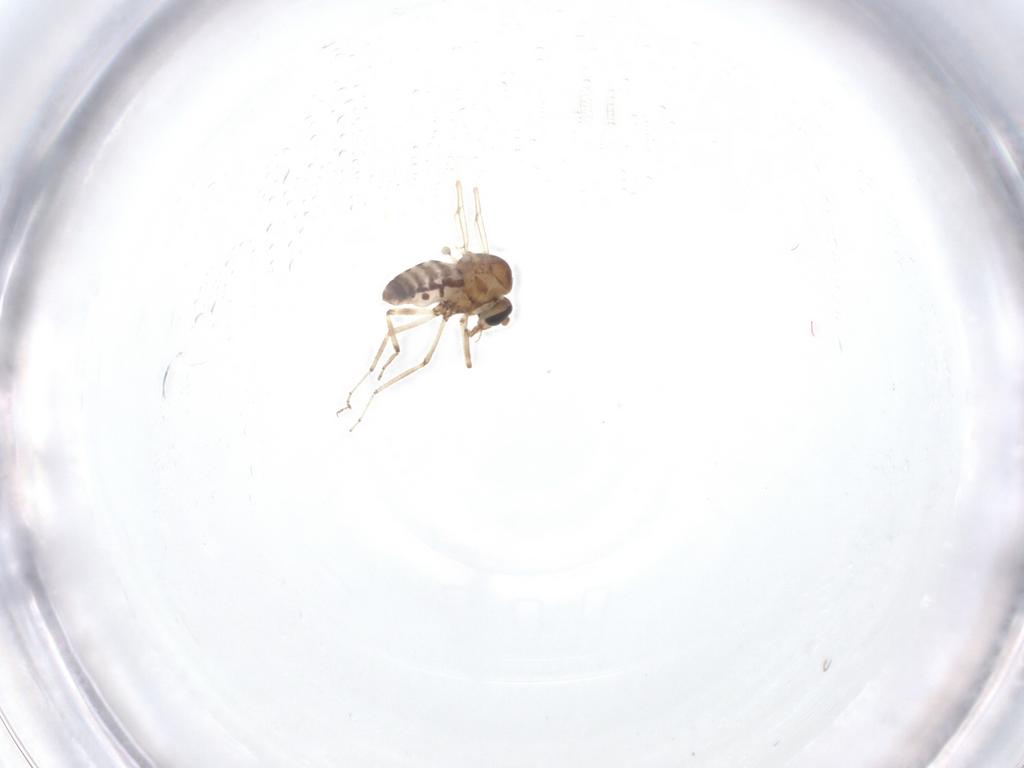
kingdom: Animalia
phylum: Arthropoda
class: Insecta
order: Diptera
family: Ceratopogonidae
